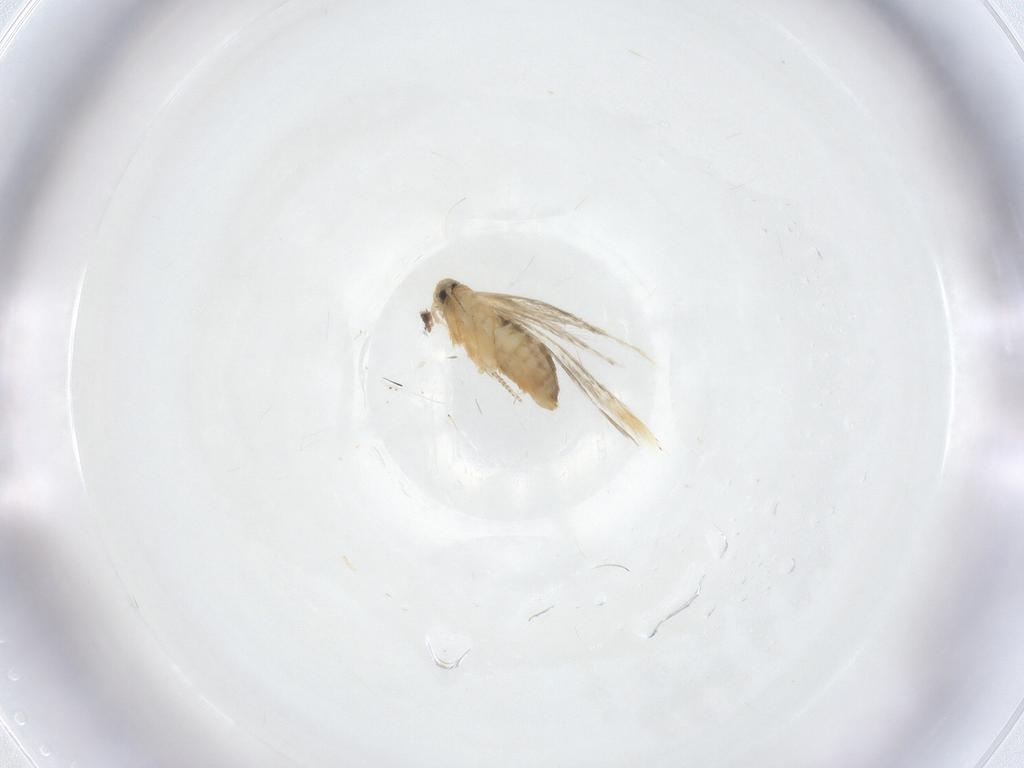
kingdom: Animalia
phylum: Arthropoda
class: Insecta
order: Lepidoptera
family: Nepticulidae
